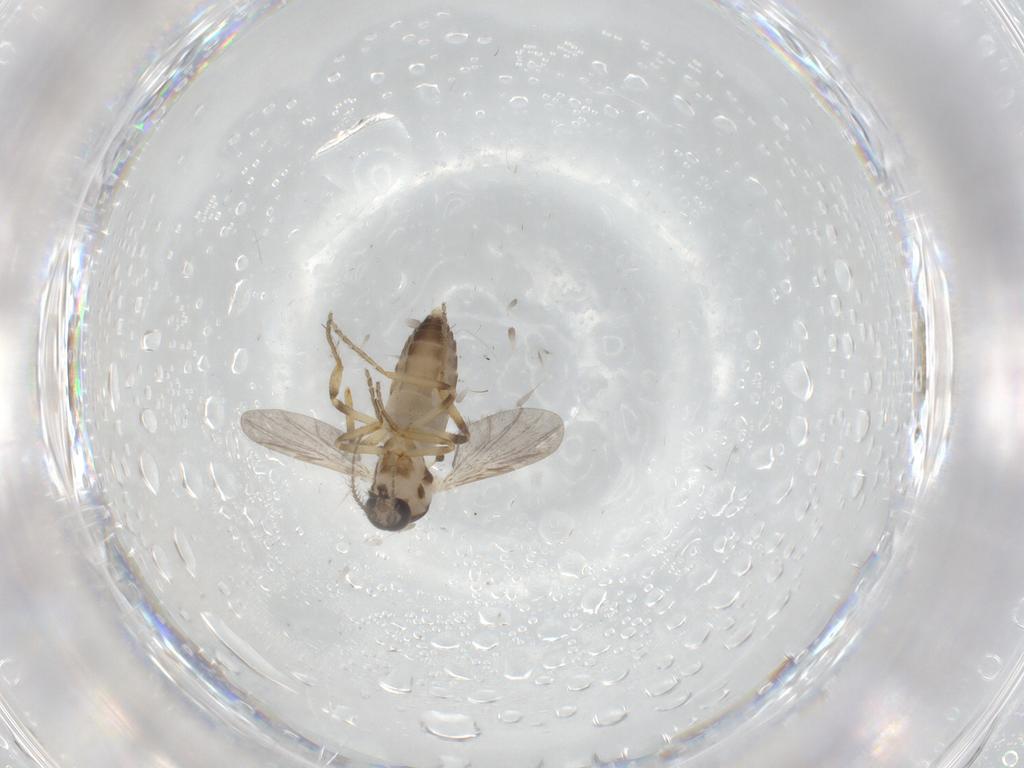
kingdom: Animalia
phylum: Arthropoda
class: Insecta
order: Diptera
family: Ceratopogonidae
